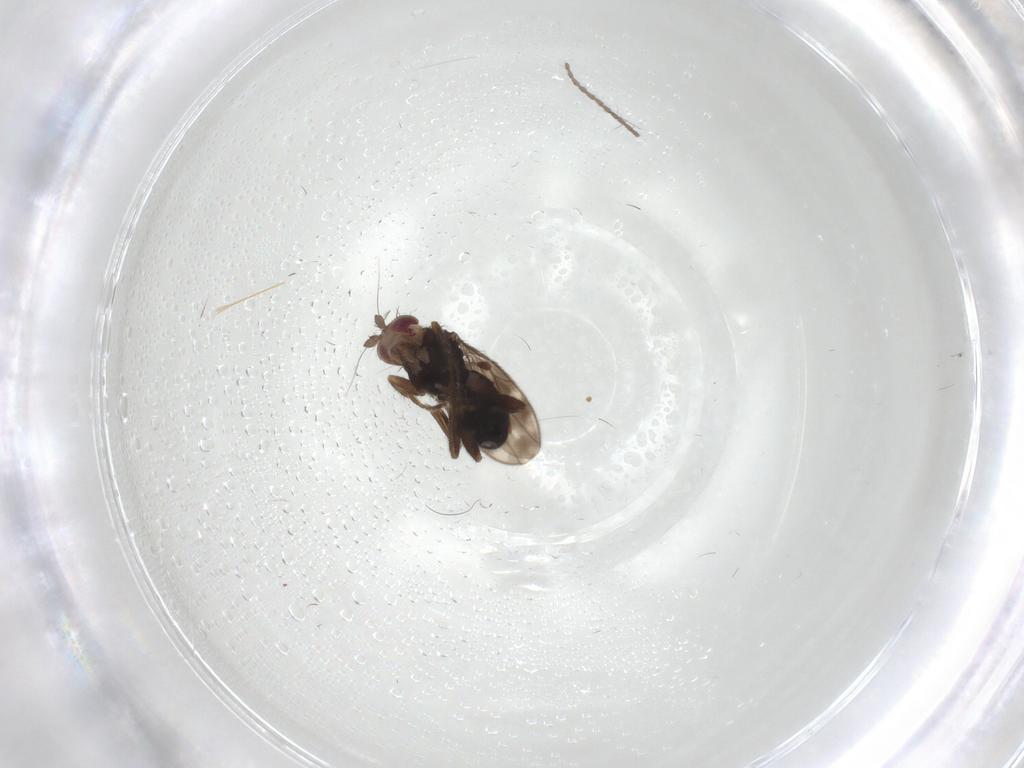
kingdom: Animalia
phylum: Arthropoda
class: Insecta
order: Diptera
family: Sphaeroceridae
